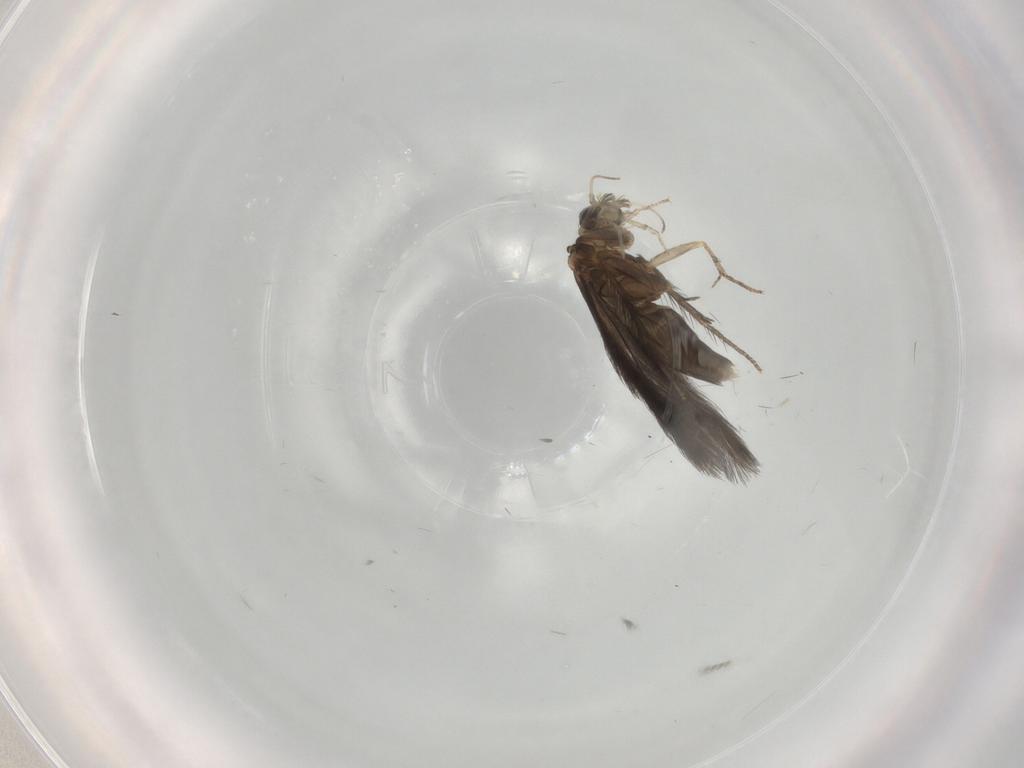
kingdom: Animalia
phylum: Arthropoda
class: Insecta
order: Trichoptera
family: Hydroptilidae
